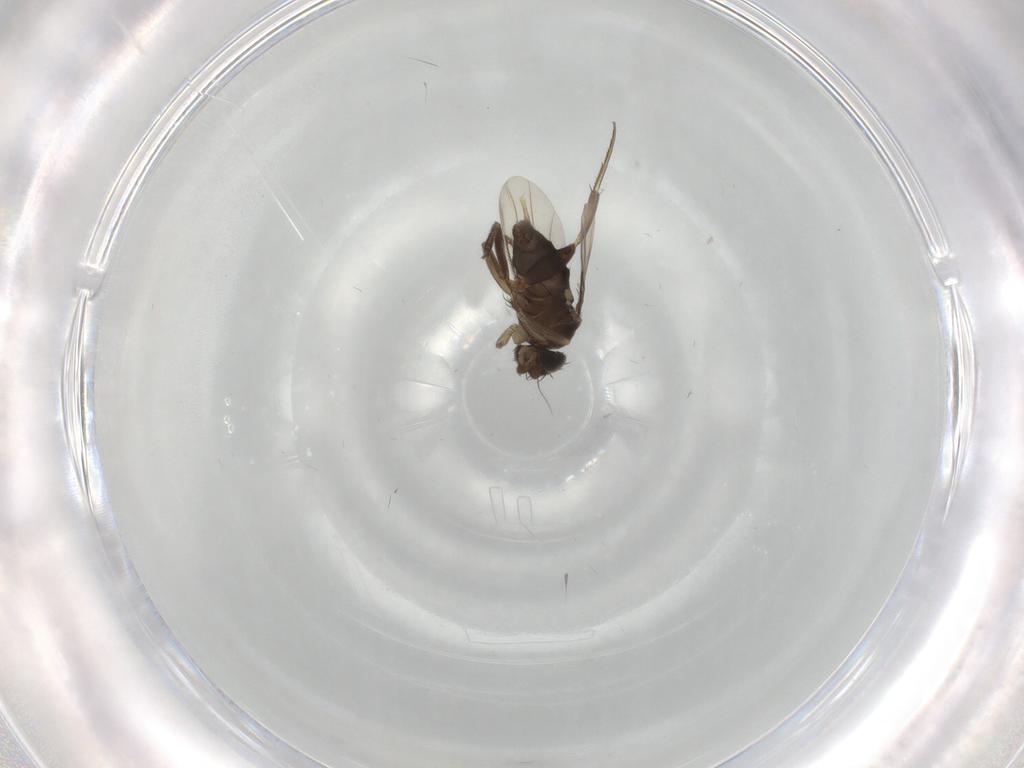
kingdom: Animalia
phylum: Arthropoda
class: Insecta
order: Diptera
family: Phoridae
